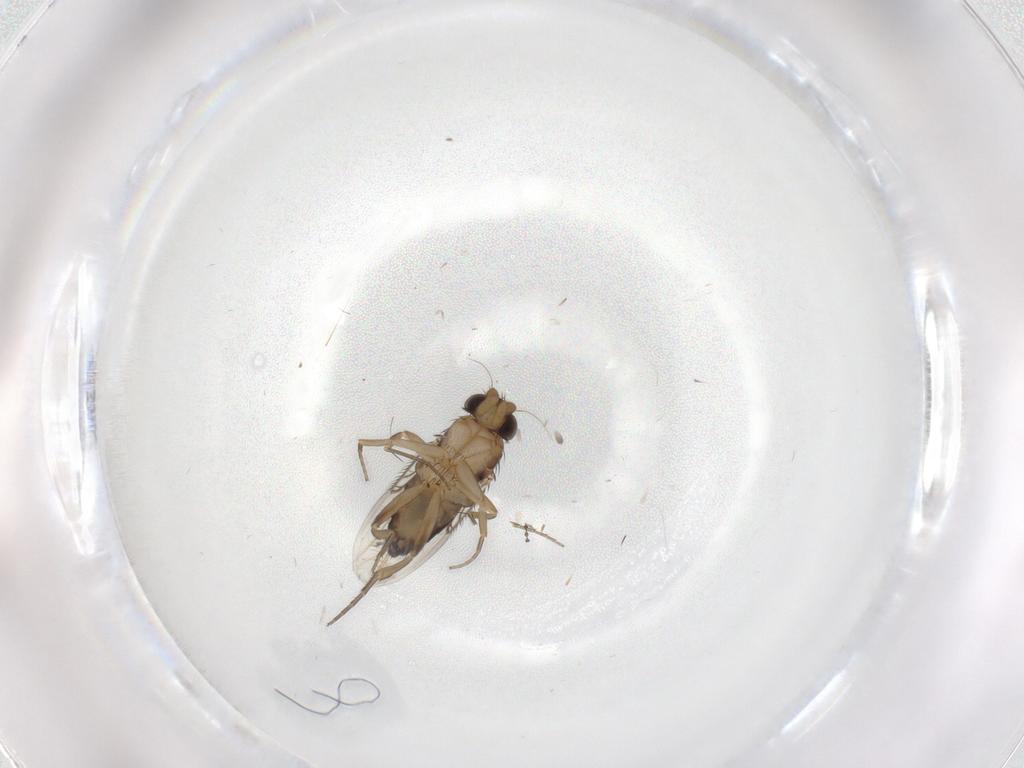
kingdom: Animalia
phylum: Arthropoda
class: Insecta
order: Diptera
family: Cecidomyiidae
